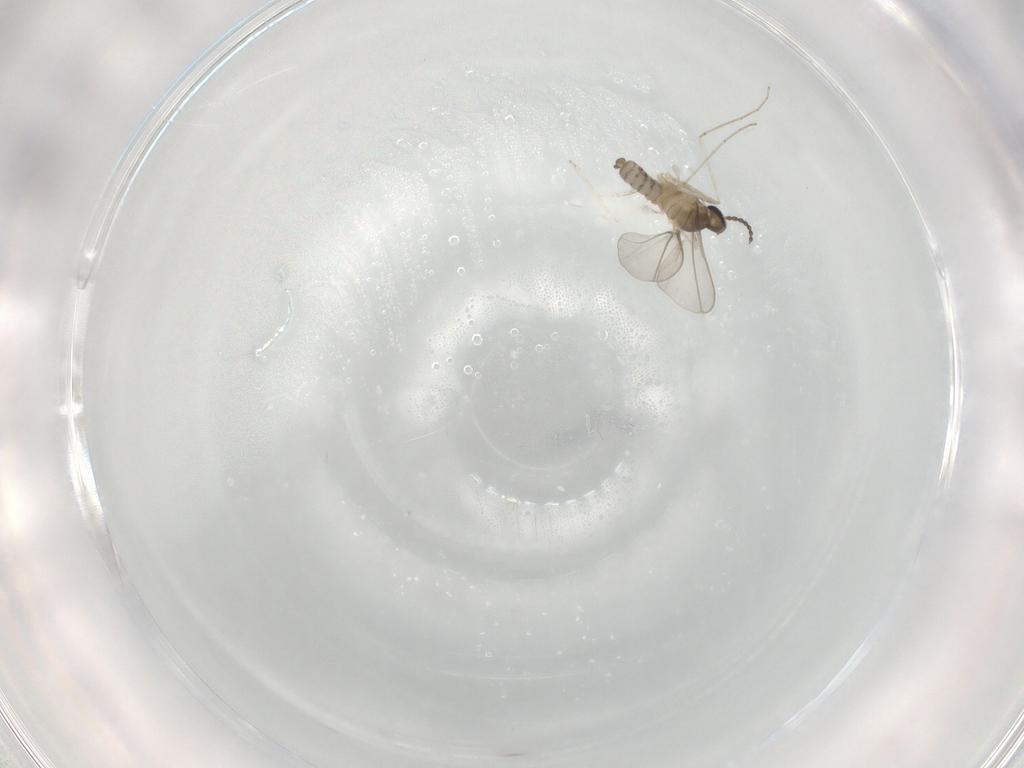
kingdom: Animalia
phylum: Arthropoda
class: Insecta
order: Diptera
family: Cecidomyiidae
